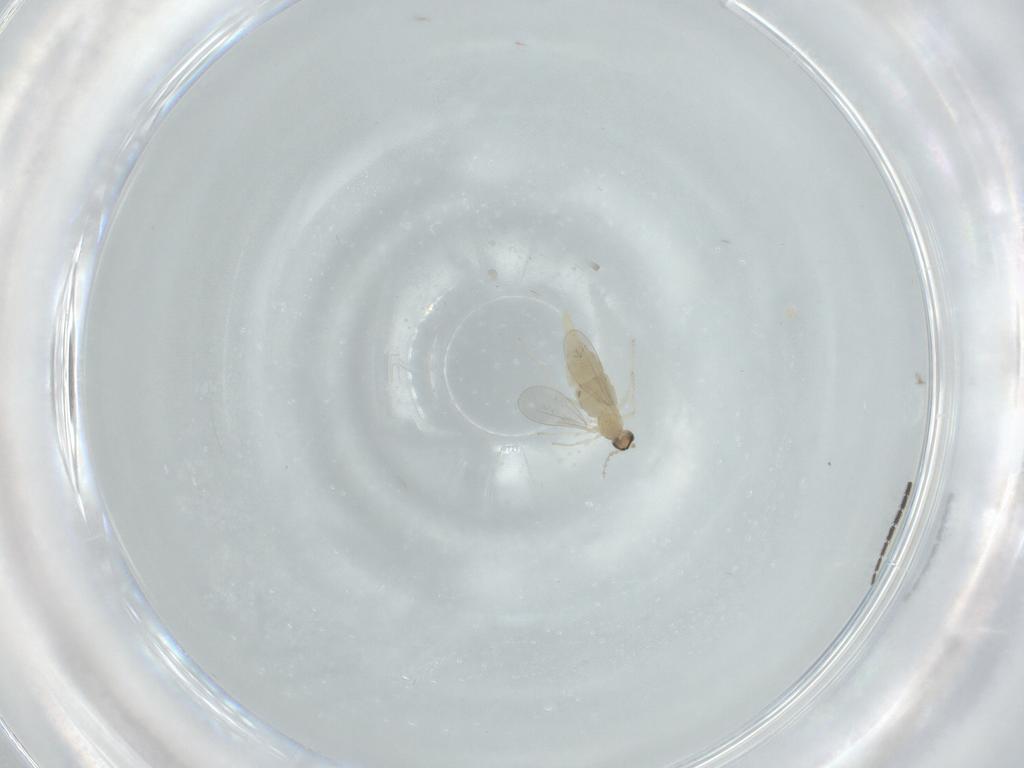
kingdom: Animalia
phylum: Arthropoda
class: Insecta
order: Diptera
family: Cecidomyiidae
